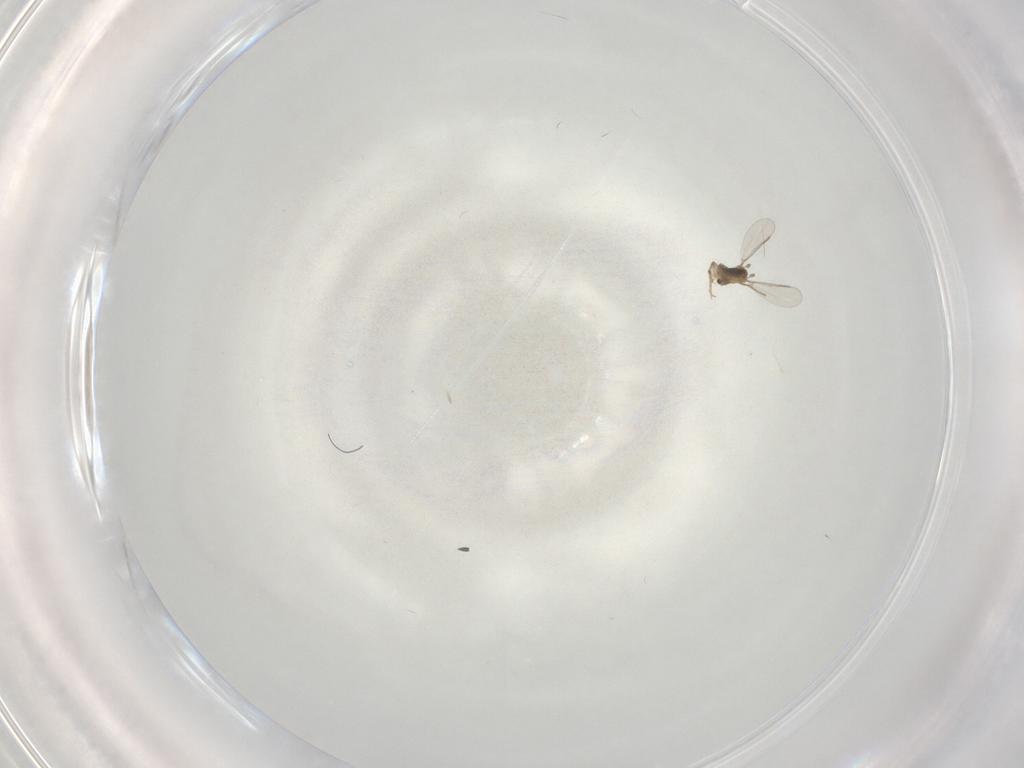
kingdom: Animalia
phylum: Arthropoda
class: Insecta
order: Diptera
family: Chironomidae
